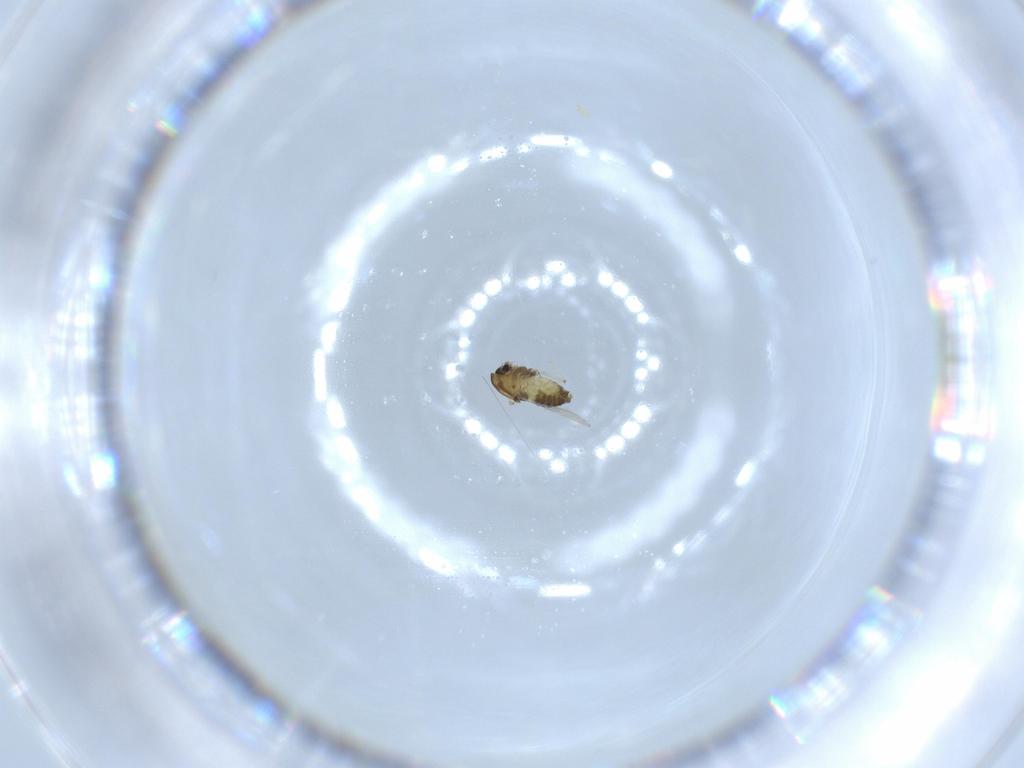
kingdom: Animalia
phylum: Arthropoda
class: Insecta
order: Diptera
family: Chironomidae
